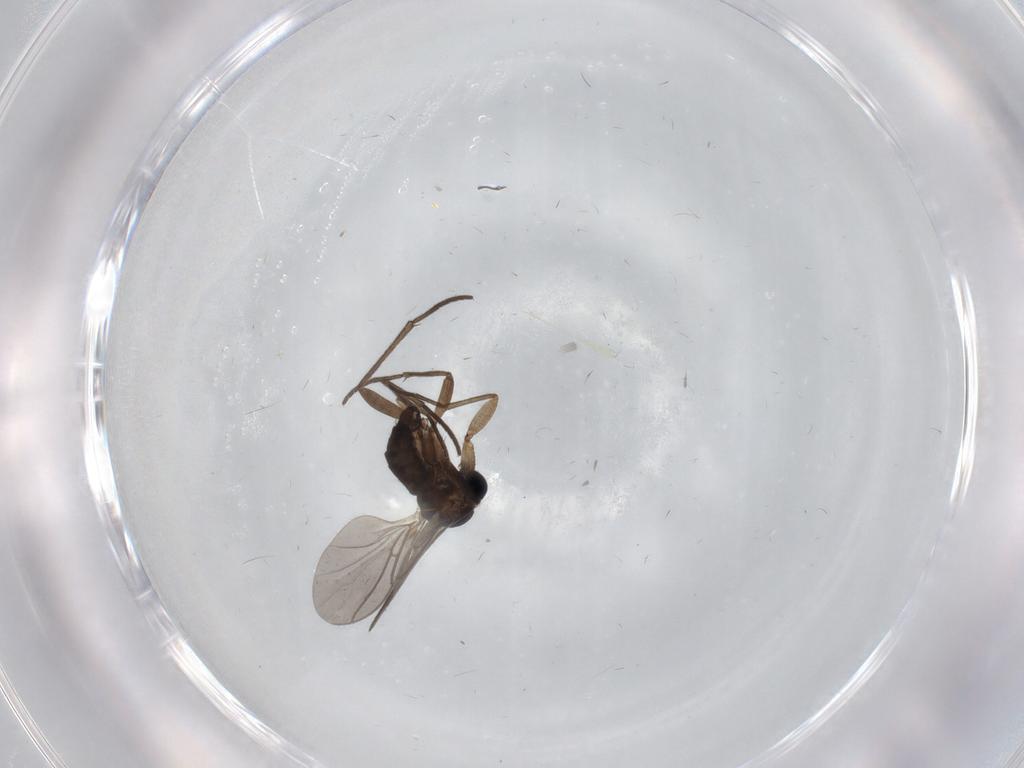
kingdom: Animalia
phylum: Arthropoda
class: Insecta
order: Diptera
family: Sciaridae
